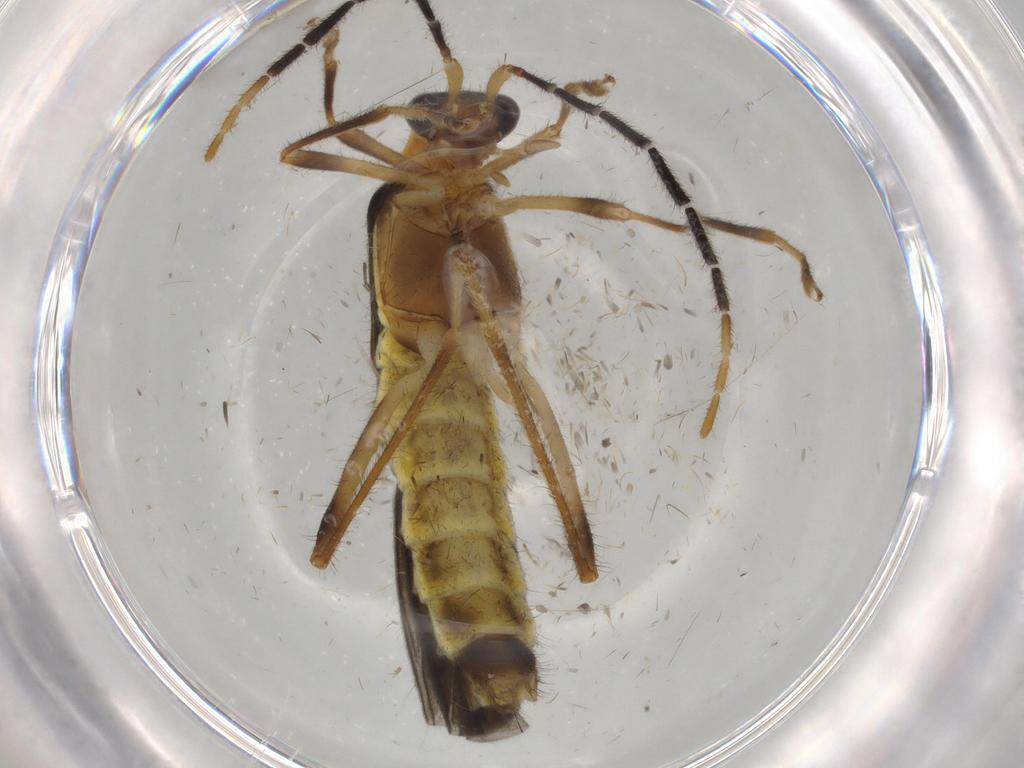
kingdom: Animalia
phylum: Arthropoda
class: Insecta
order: Coleoptera
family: Cantharidae
